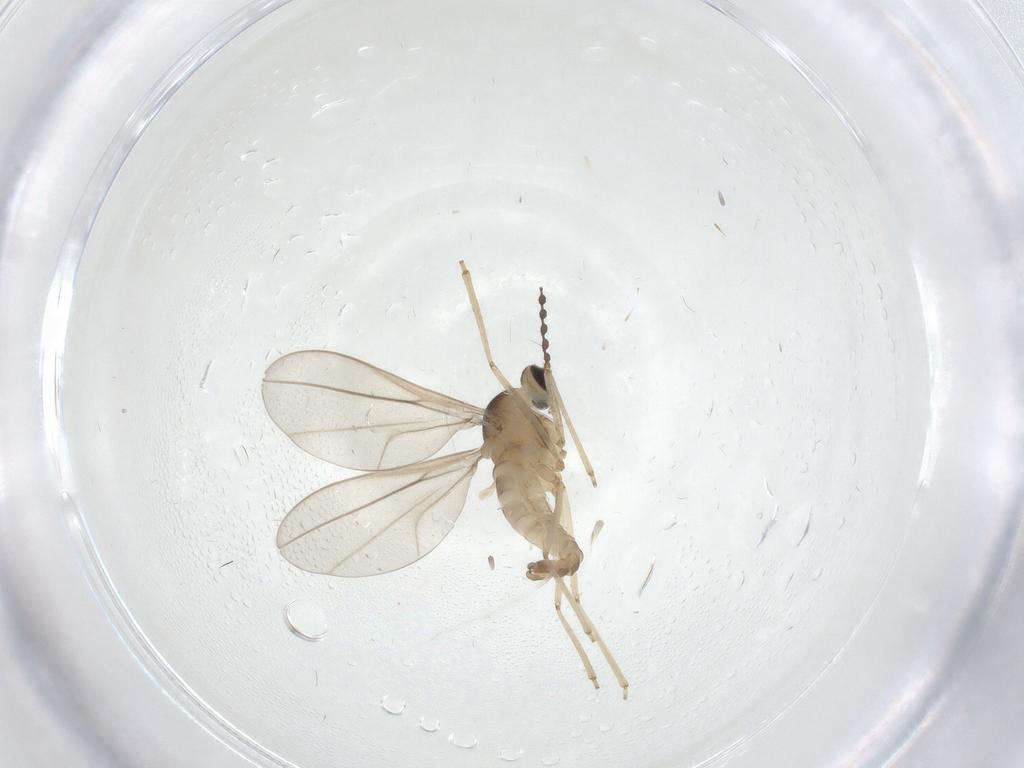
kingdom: Animalia
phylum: Arthropoda
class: Insecta
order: Diptera
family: Cecidomyiidae
